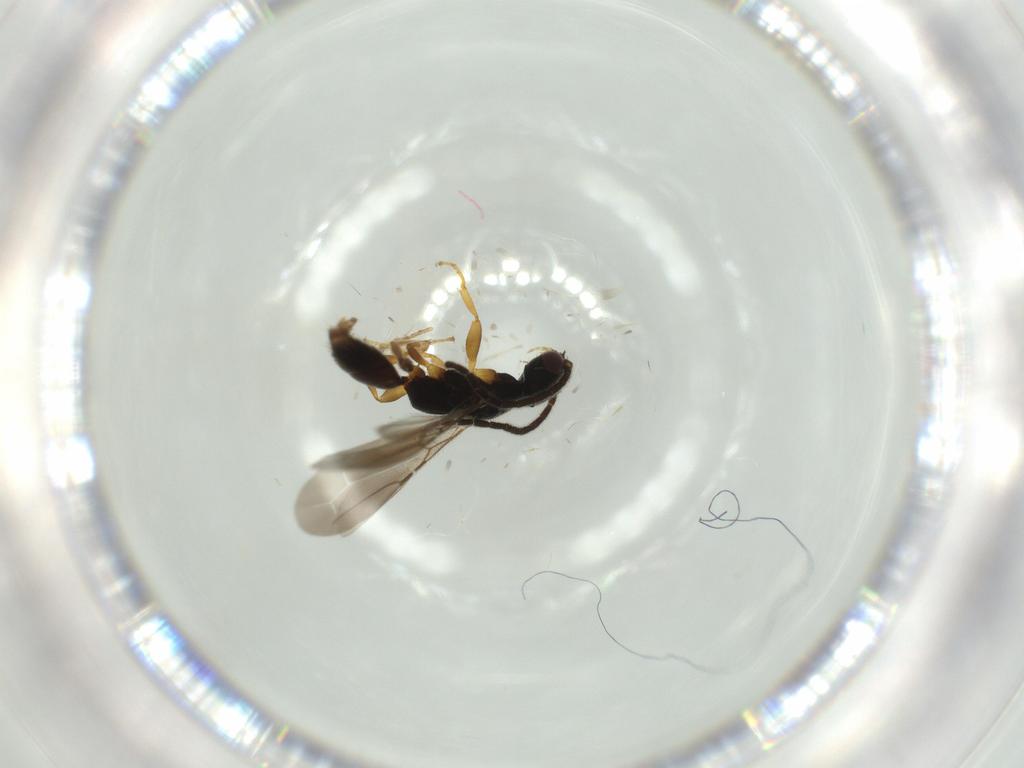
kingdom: Animalia
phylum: Arthropoda
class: Insecta
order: Hymenoptera
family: Bethylidae
